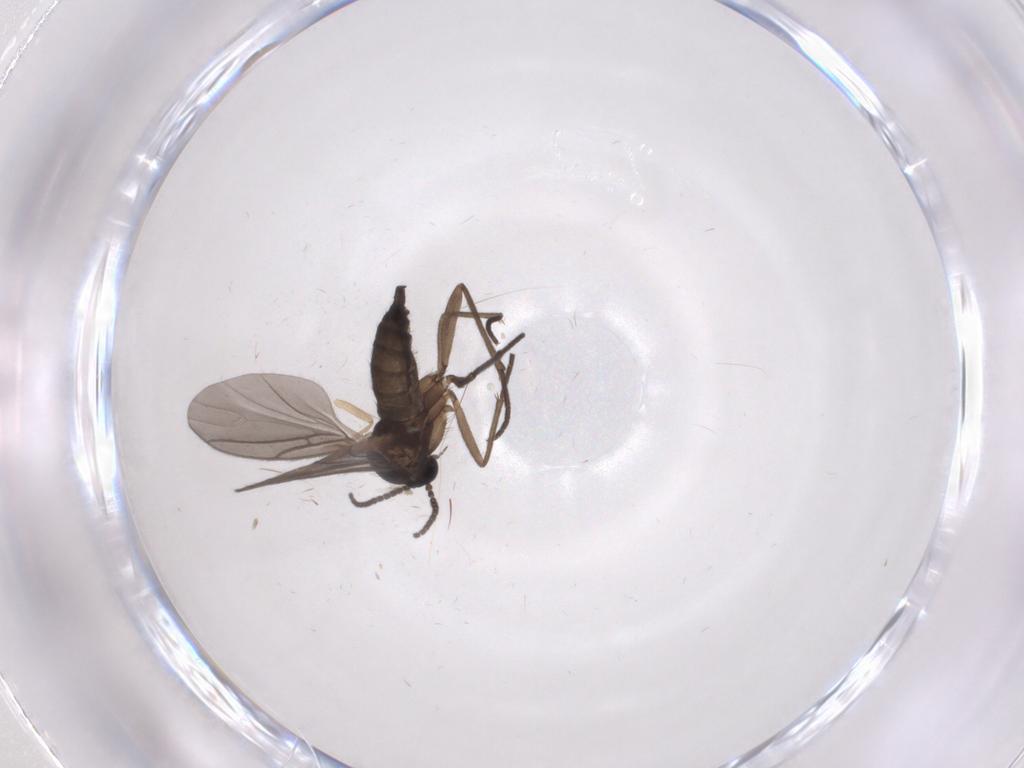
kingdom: Animalia
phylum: Arthropoda
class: Insecta
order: Diptera
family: Sciaridae
